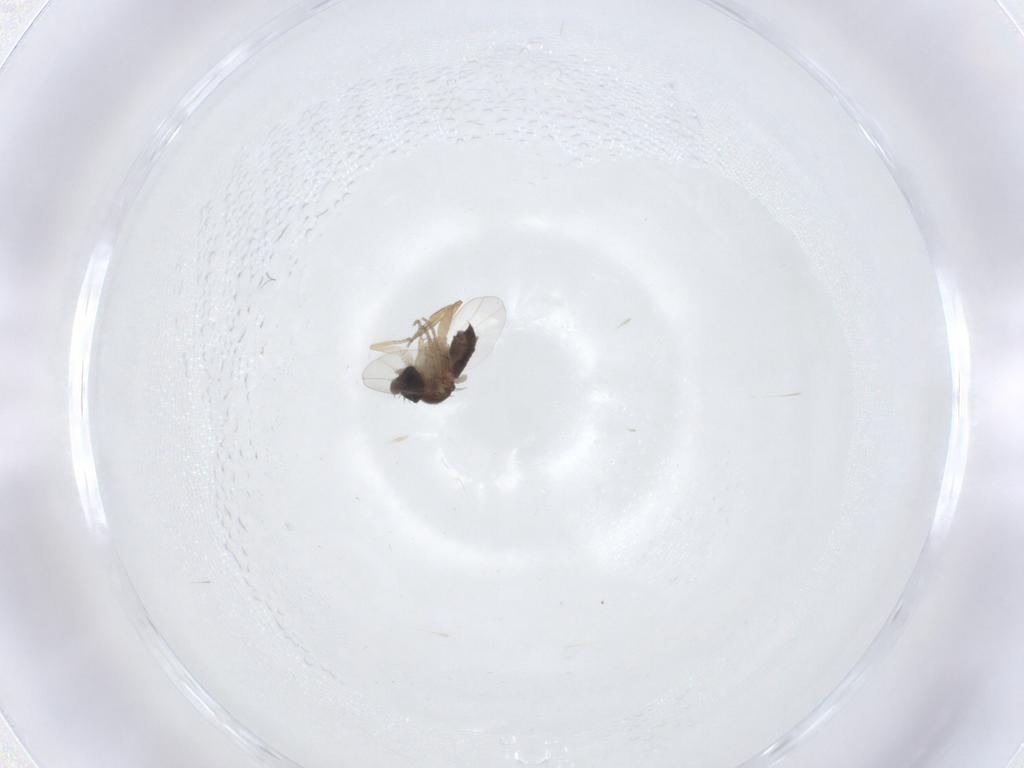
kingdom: Animalia
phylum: Arthropoda
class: Insecta
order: Diptera
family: Phoridae
